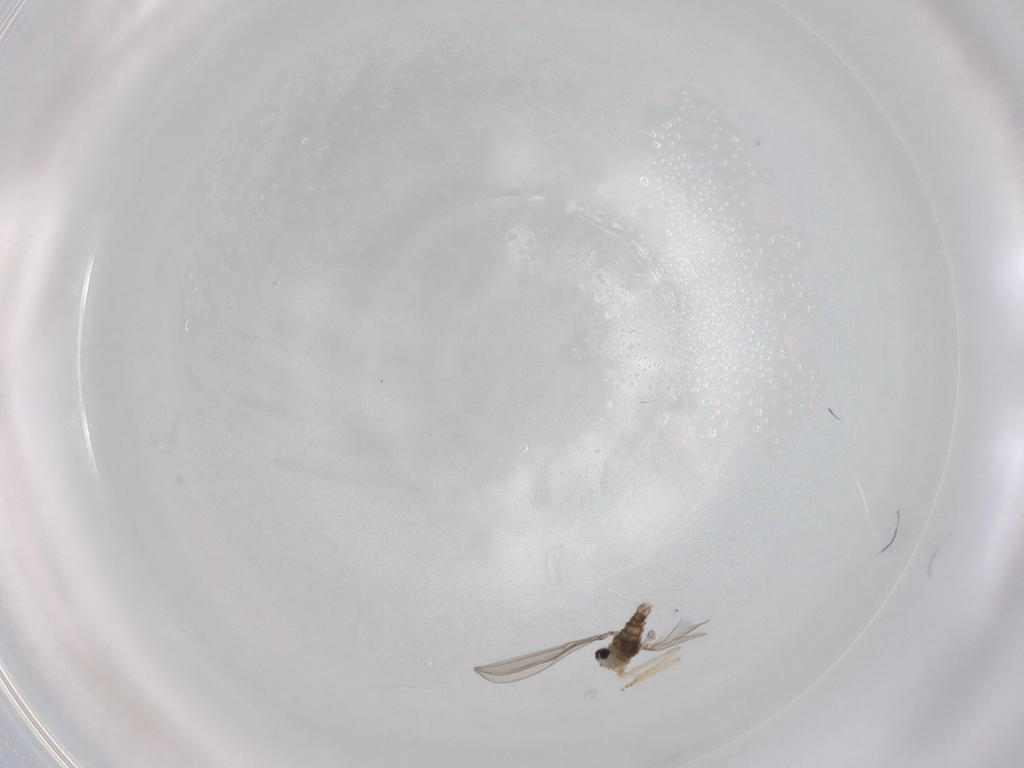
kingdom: Animalia
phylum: Arthropoda
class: Insecta
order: Diptera
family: Cecidomyiidae
